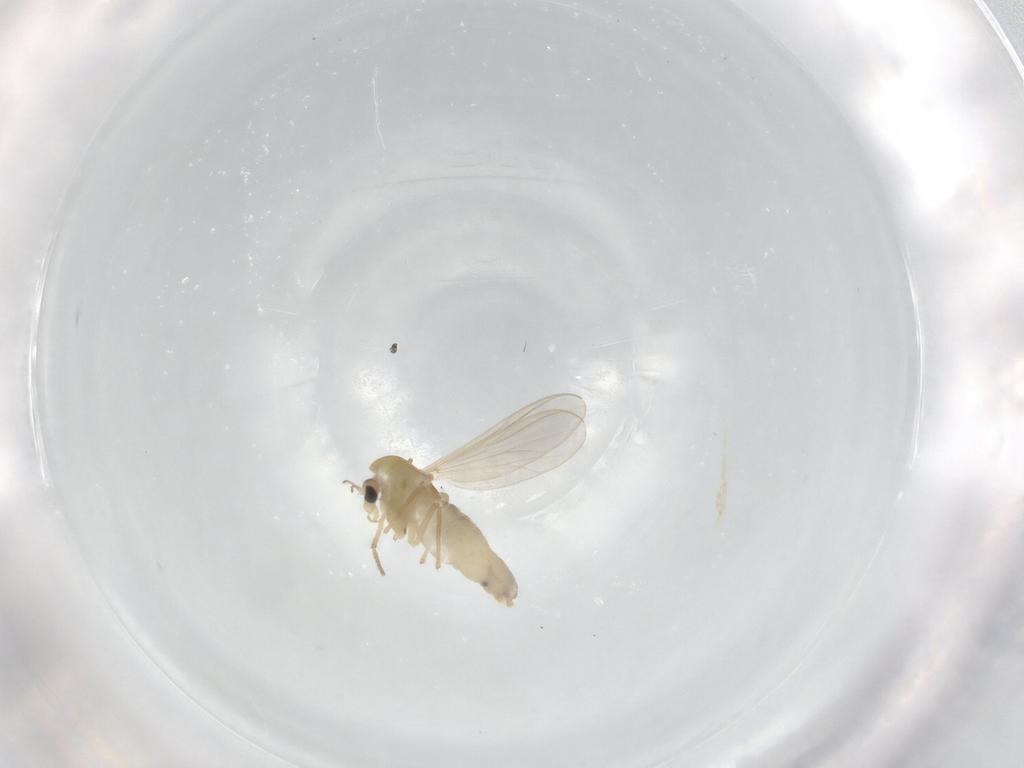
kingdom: Animalia
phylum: Arthropoda
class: Insecta
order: Diptera
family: Chironomidae
